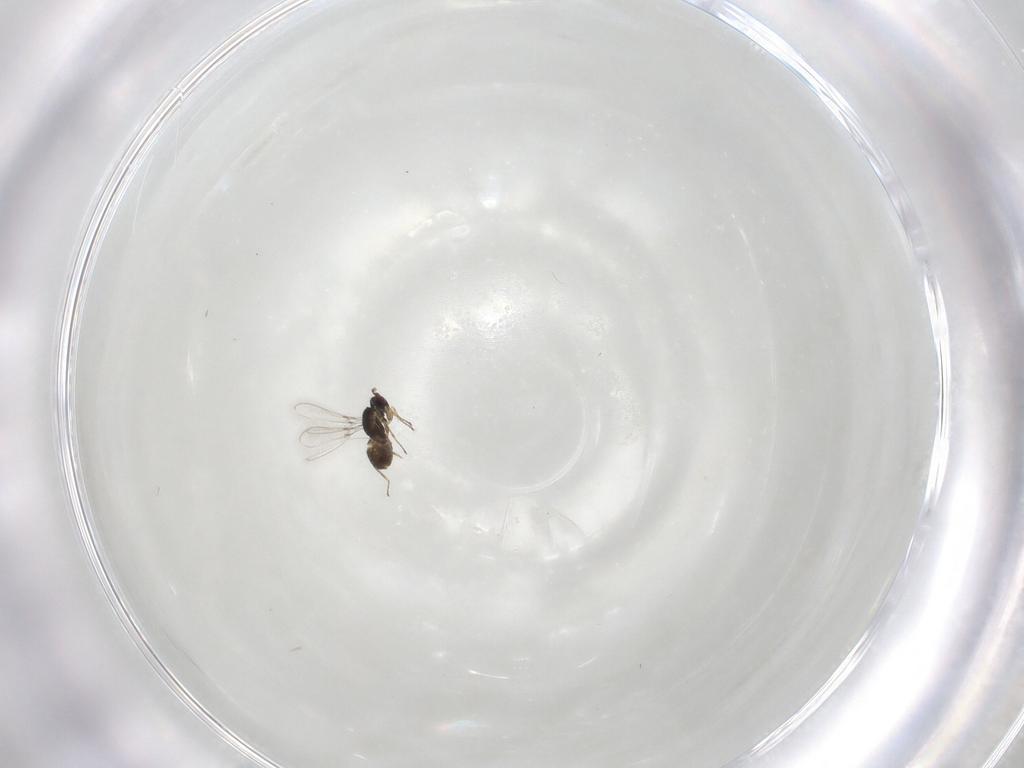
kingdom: Animalia
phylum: Arthropoda
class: Insecta
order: Hymenoptera
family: Mymaridae
